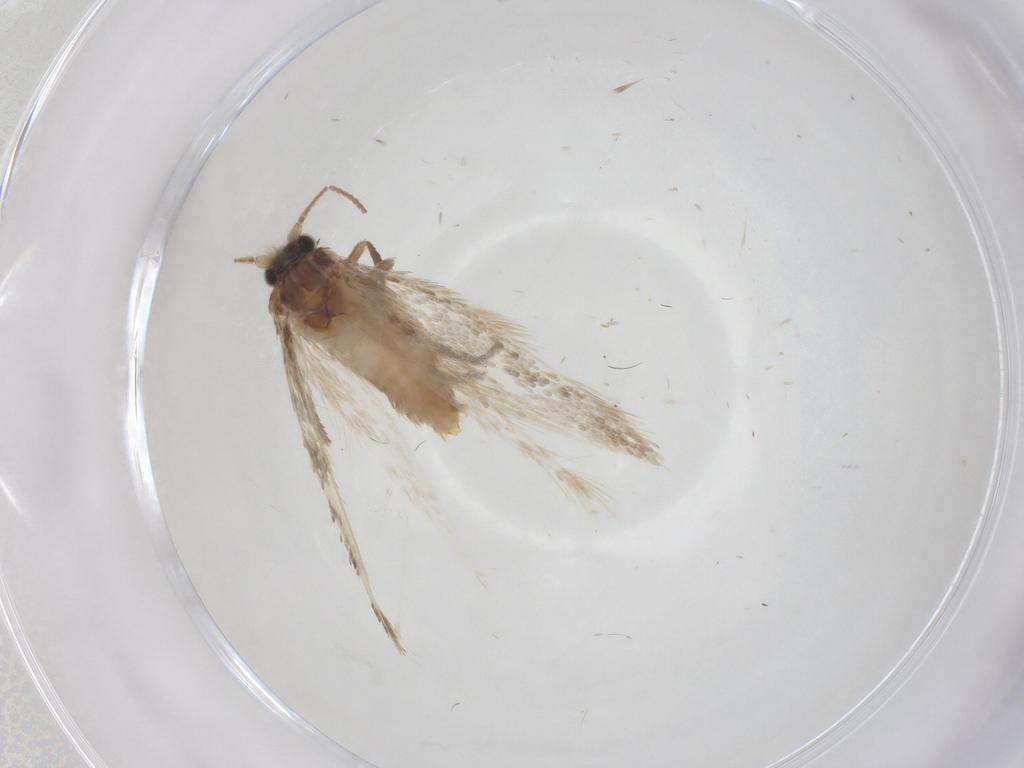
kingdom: Animalia
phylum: Arthropoda
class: Insecta
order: Lepidoptera
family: Gelechiidae
